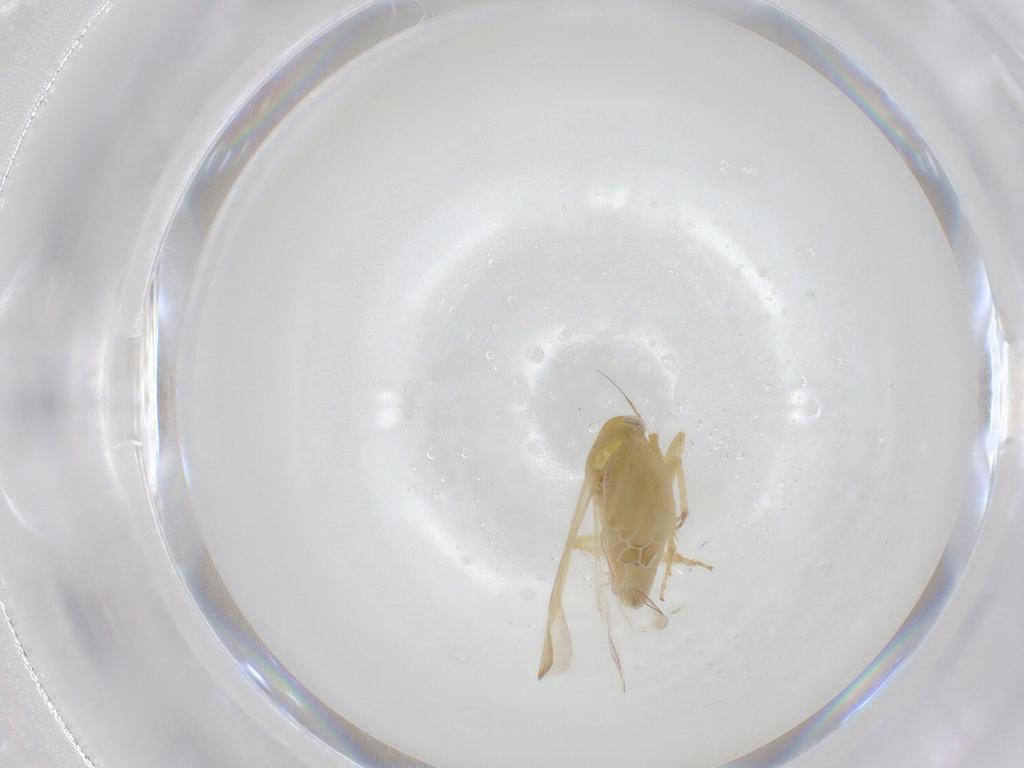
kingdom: Animalia
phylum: Arthropoda
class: Insecta
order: Hemiptera
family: Cicadellidae
